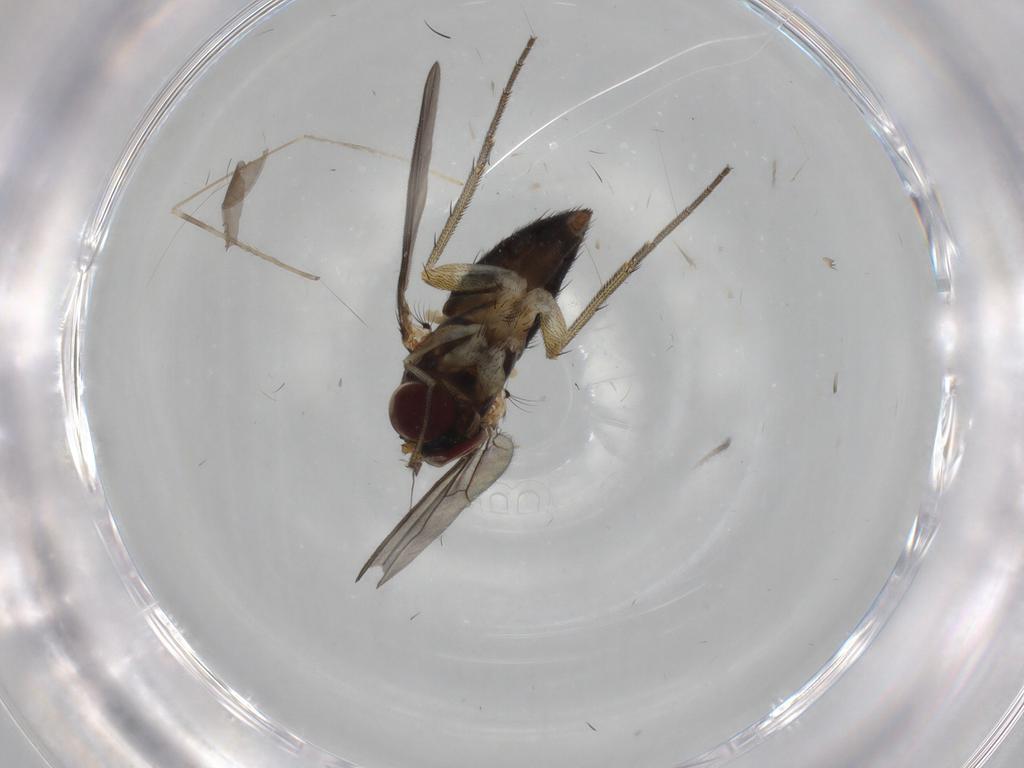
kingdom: Animalia
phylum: Arthropoda
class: Insecta
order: Diptera
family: Dolichopodidae
